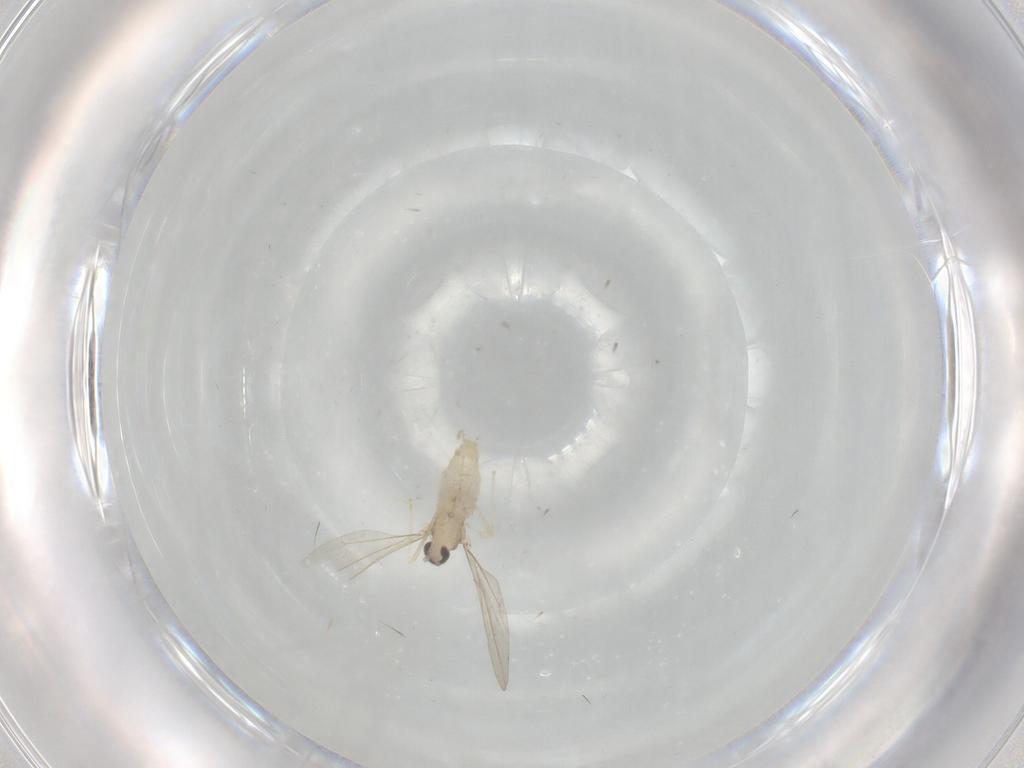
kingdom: Animalia
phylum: Arthropoda
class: Insecta
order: Diptera
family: Cecidomyiidae
